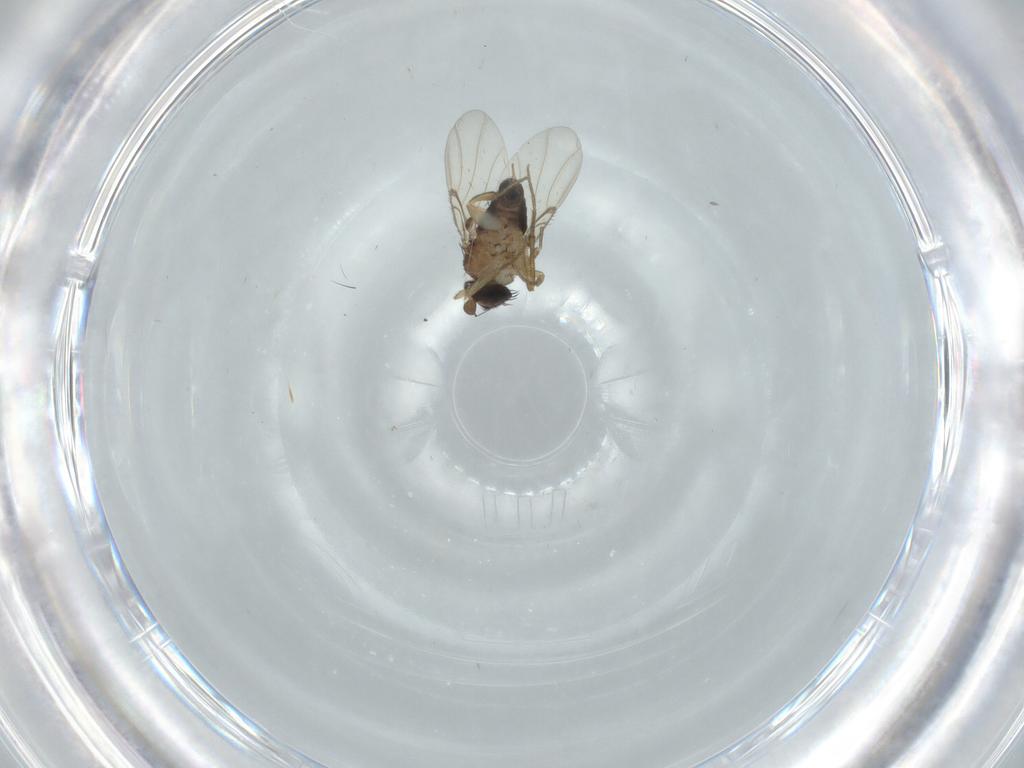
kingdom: Animalia
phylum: Arthropoda
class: Insecta
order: Diptera
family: Phoridae
